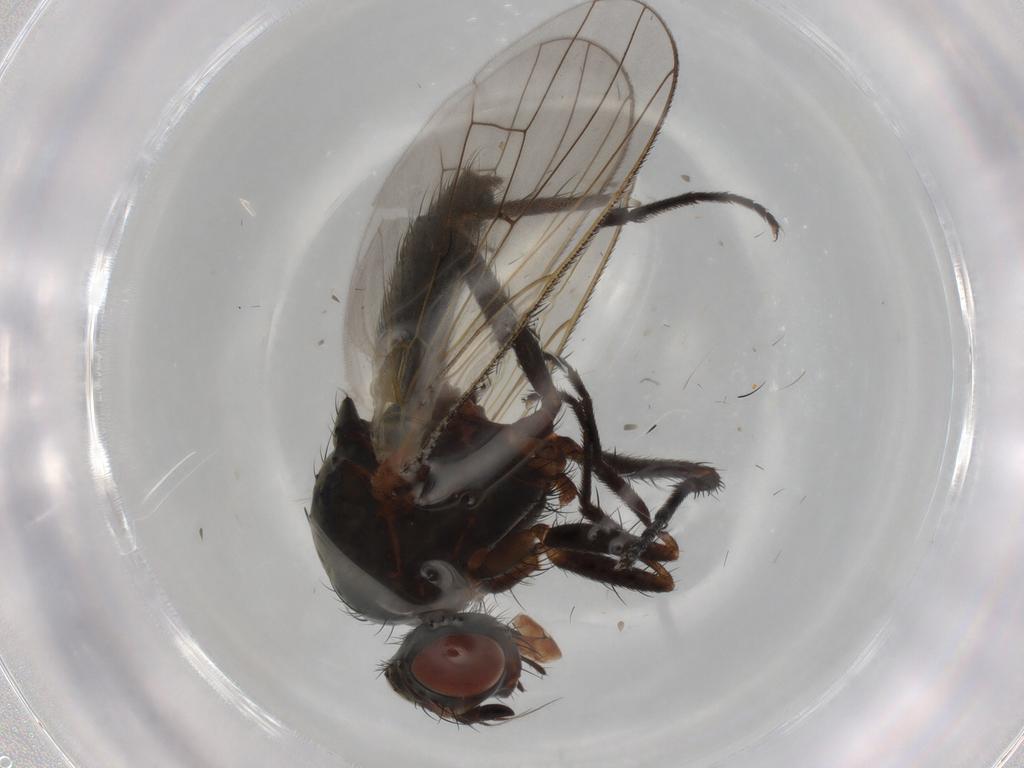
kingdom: Animalia
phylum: Arthropoda
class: Insecta
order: Diptera
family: Anthomyiidae
